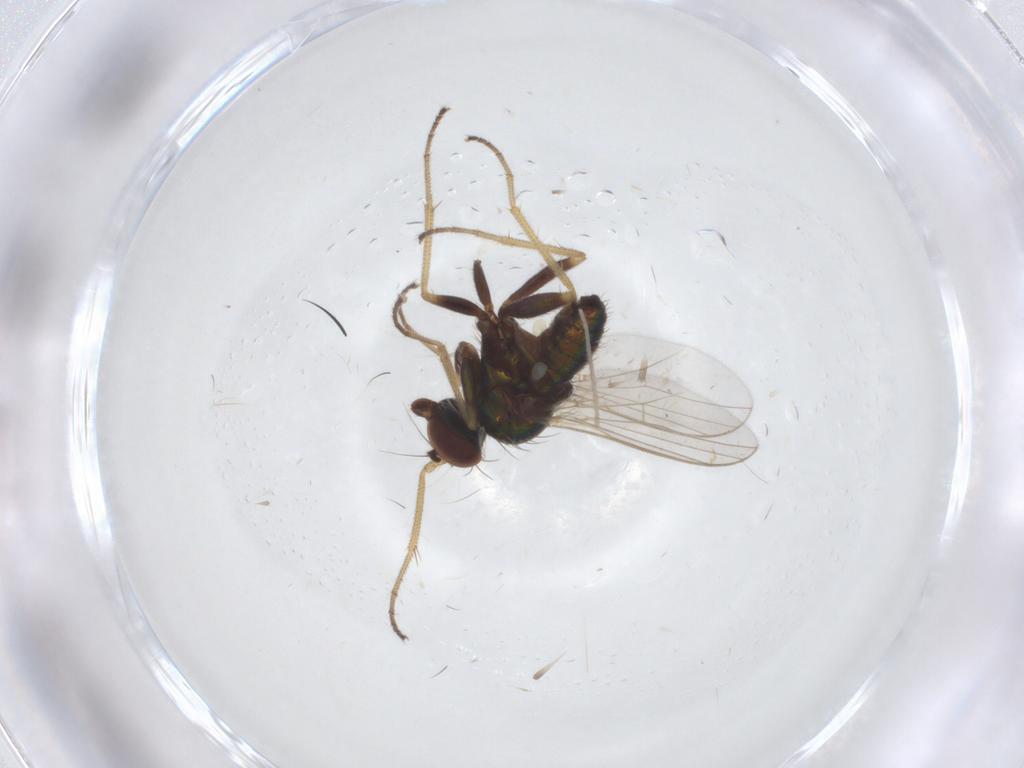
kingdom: Animalia
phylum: Arthropoda
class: Insecta
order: Diptera
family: Dolichopodidae
